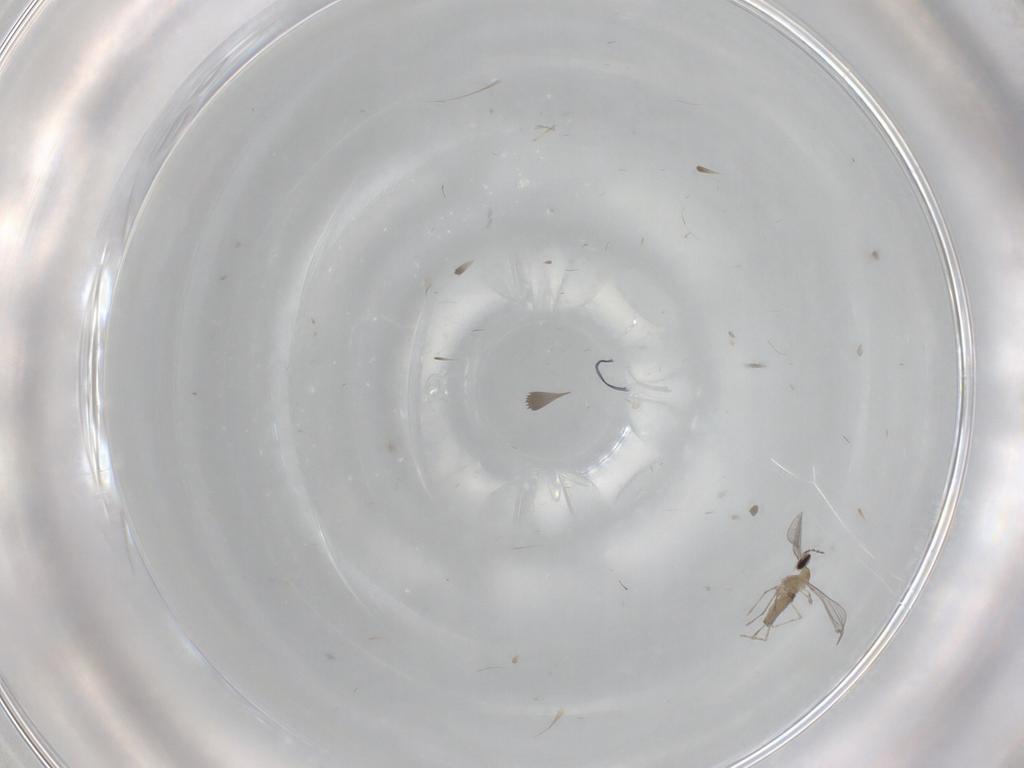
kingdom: Animalia
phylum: Arthropoda
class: Insecta
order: Diptera
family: Cecidomyiidae
